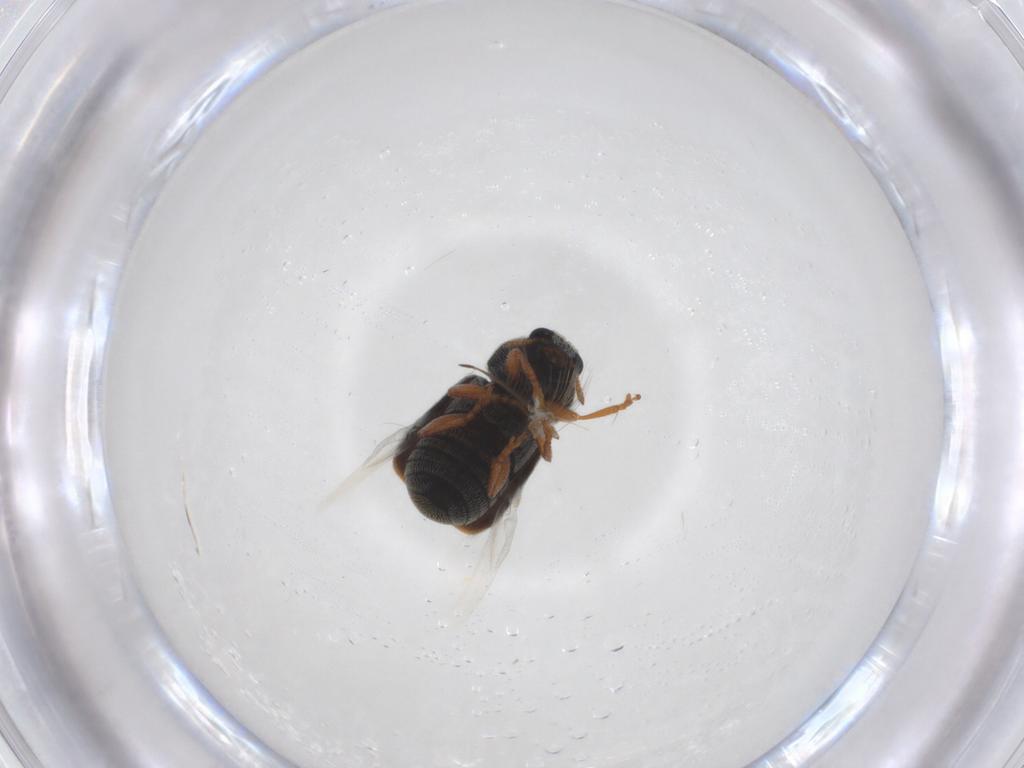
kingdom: Animalia
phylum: Arthropoda
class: Insecta
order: Coleoptera
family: Anthribidae
